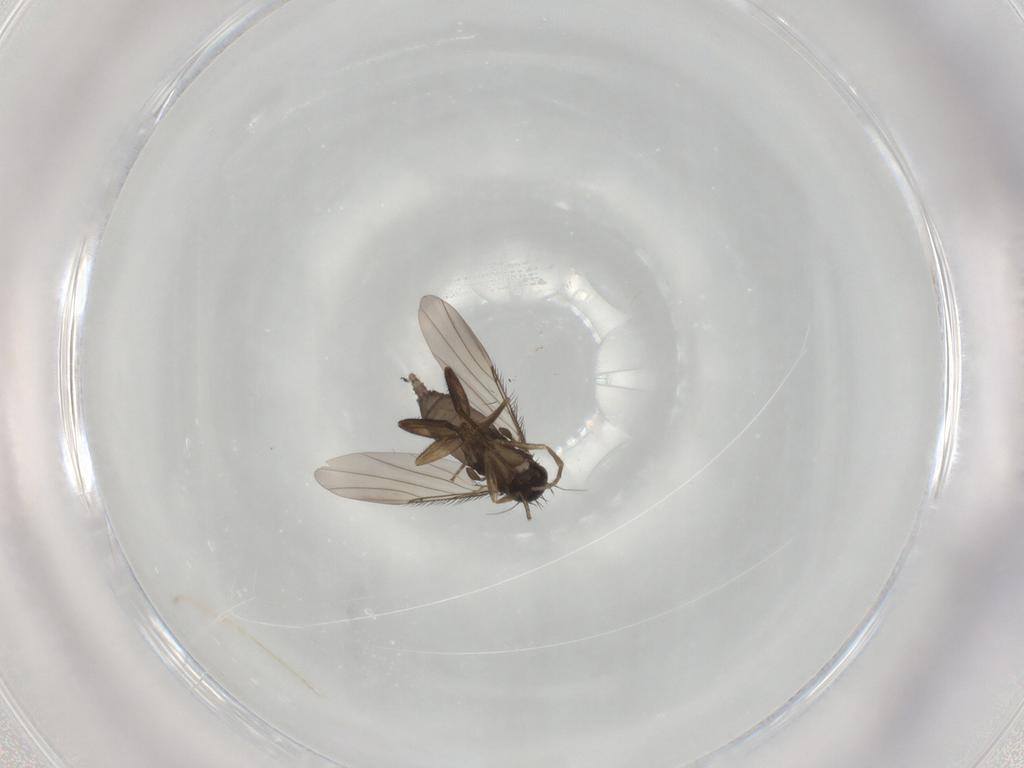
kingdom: Animalia
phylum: Arthropoda
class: Insecta
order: Diptera
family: Phoridae
